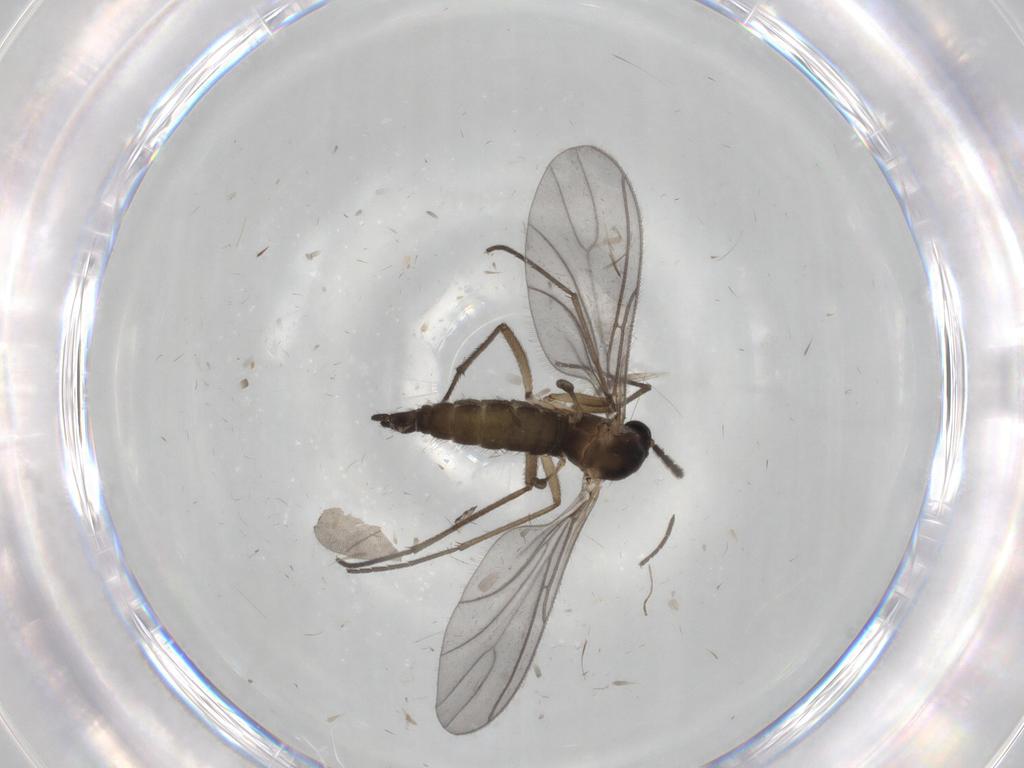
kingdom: Animalia
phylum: Arthropoda
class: Insecta
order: Diptera
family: Sciaridae
